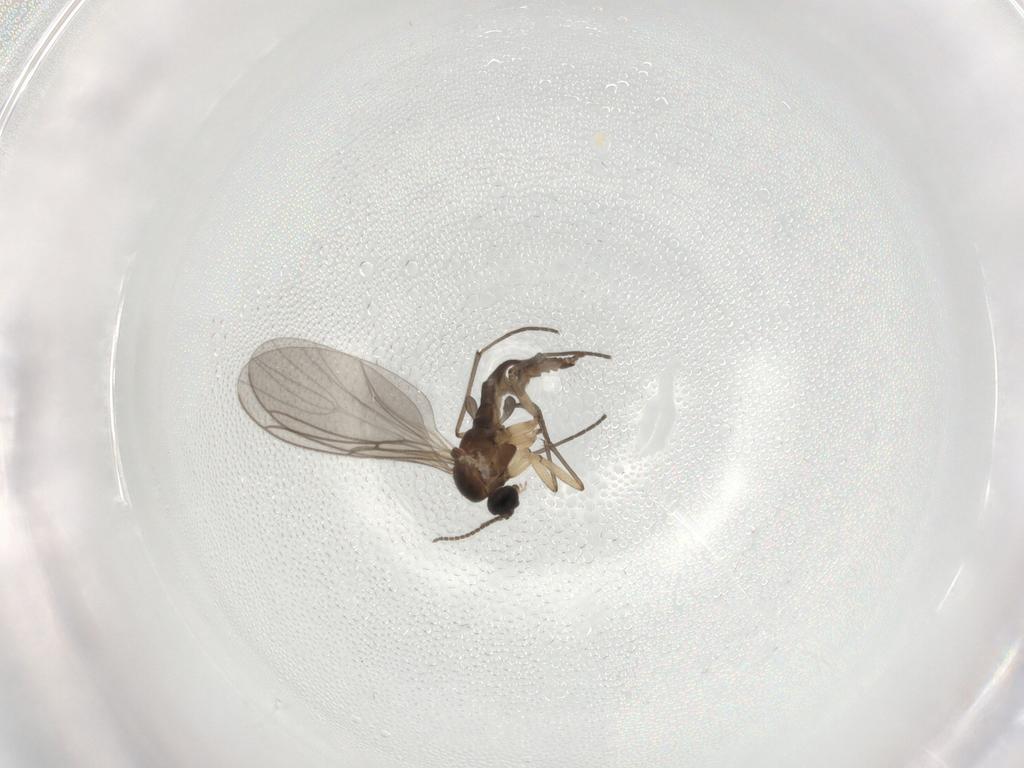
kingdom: Animalia
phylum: Arthropoda
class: Insecta
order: Diptera
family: Sciaridae
